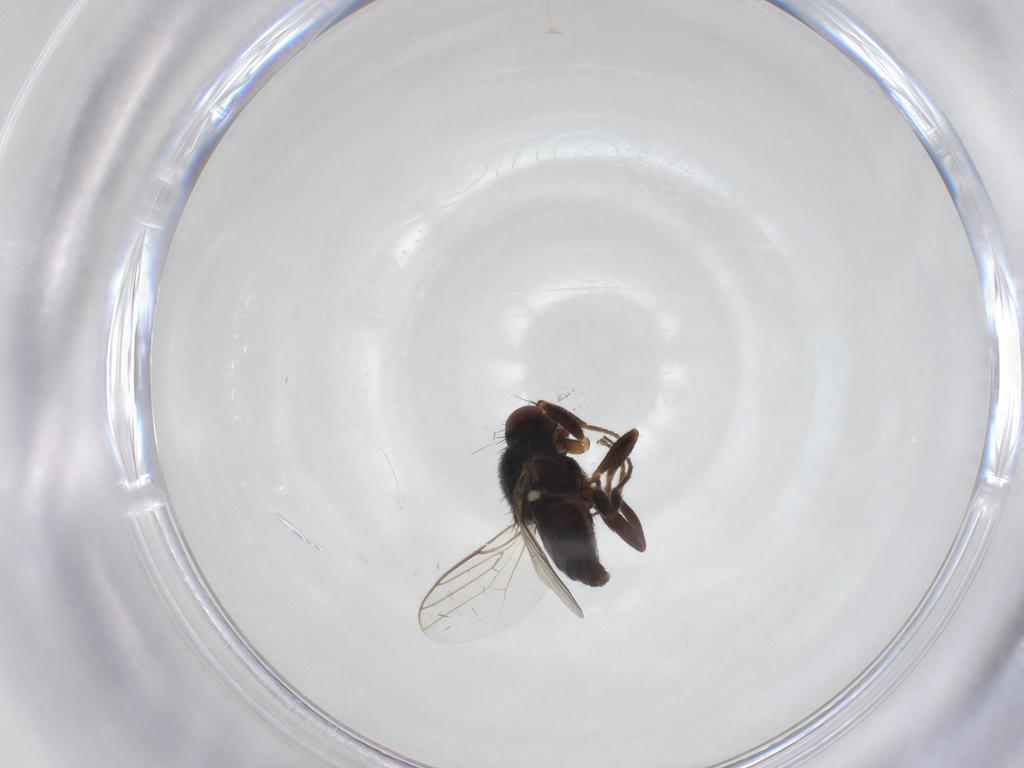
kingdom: Animalia
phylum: Arthropoda
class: Insecta
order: Diptera
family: Chloropidae
